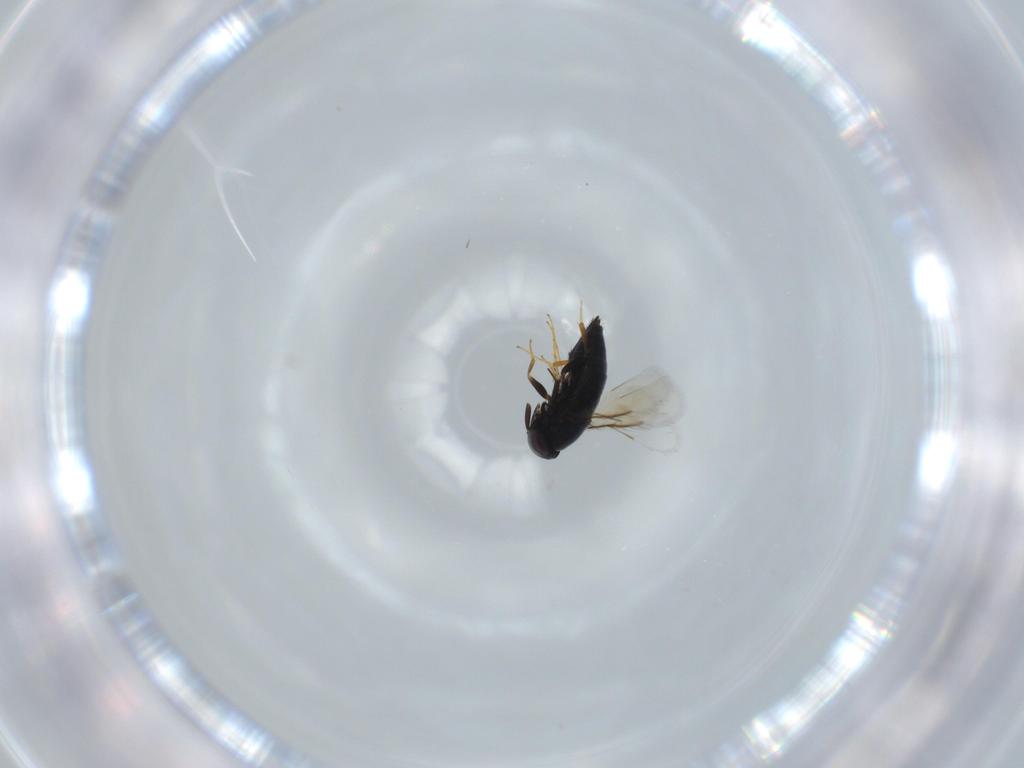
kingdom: Animalia
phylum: Arthropoda
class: Insecta
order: Hymenoptera
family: Signiphoridae
